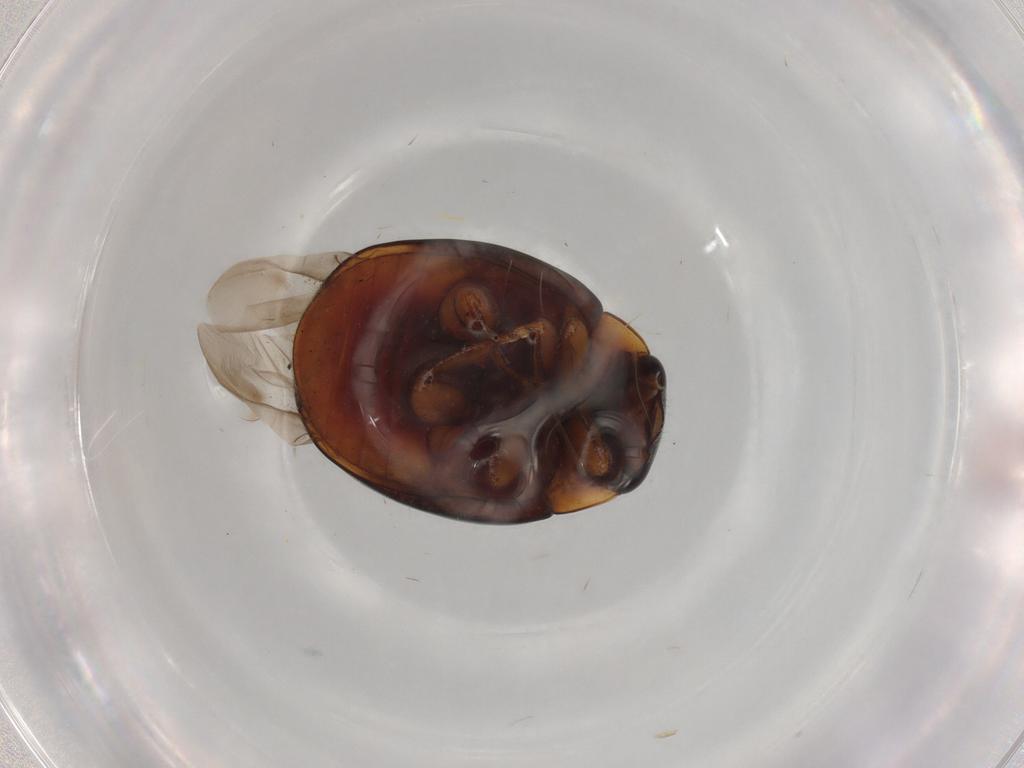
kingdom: Animalia
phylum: Arthropoda
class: Insecta
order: Coleoptera
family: Coccinellidae
